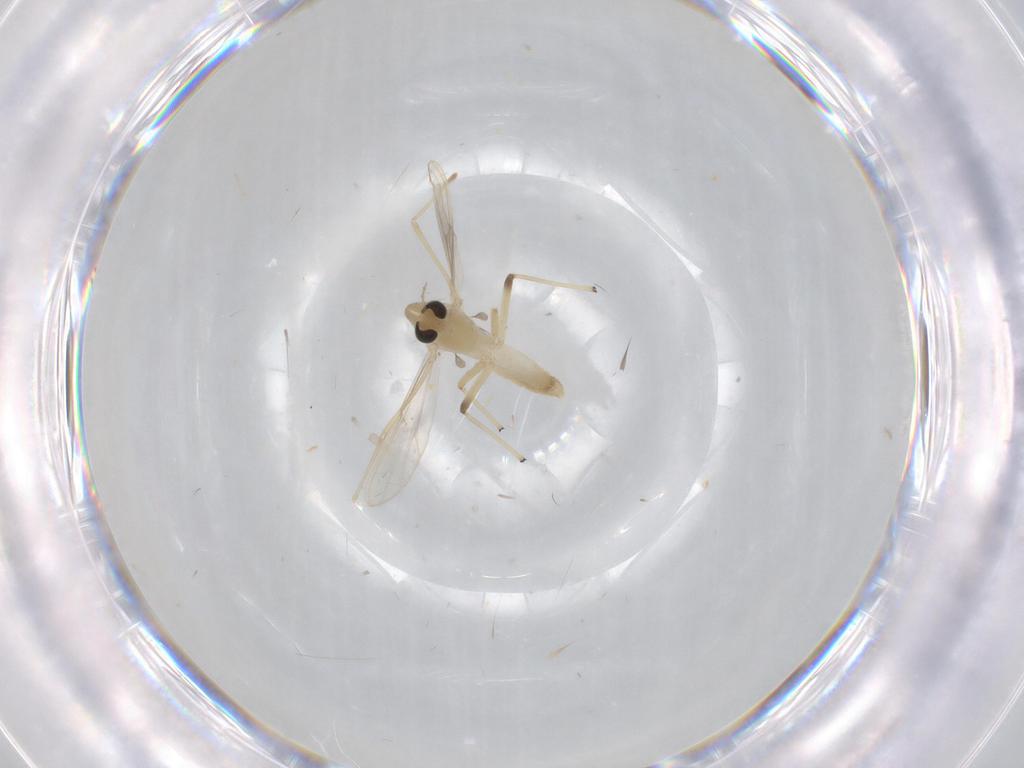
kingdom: Animalia
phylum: Arthropoda
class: Insecta
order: Diptera
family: Chironomidae
